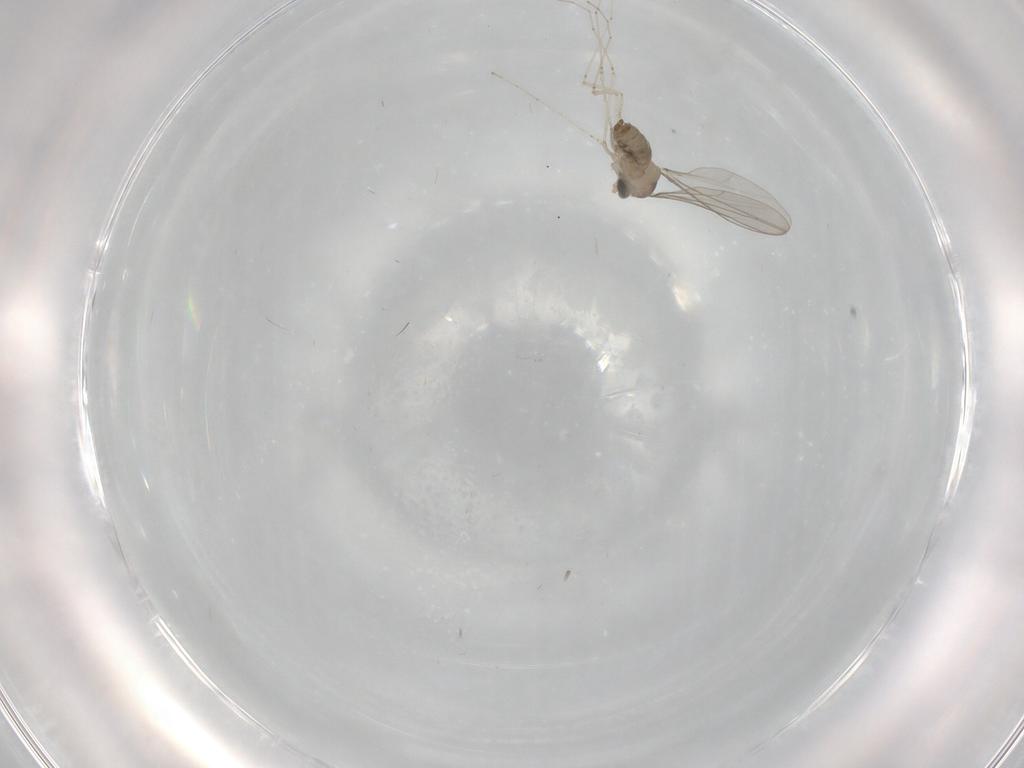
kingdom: Animalia
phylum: Arthropoda
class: Insecta
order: Diptera
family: Cecidomyiidae
